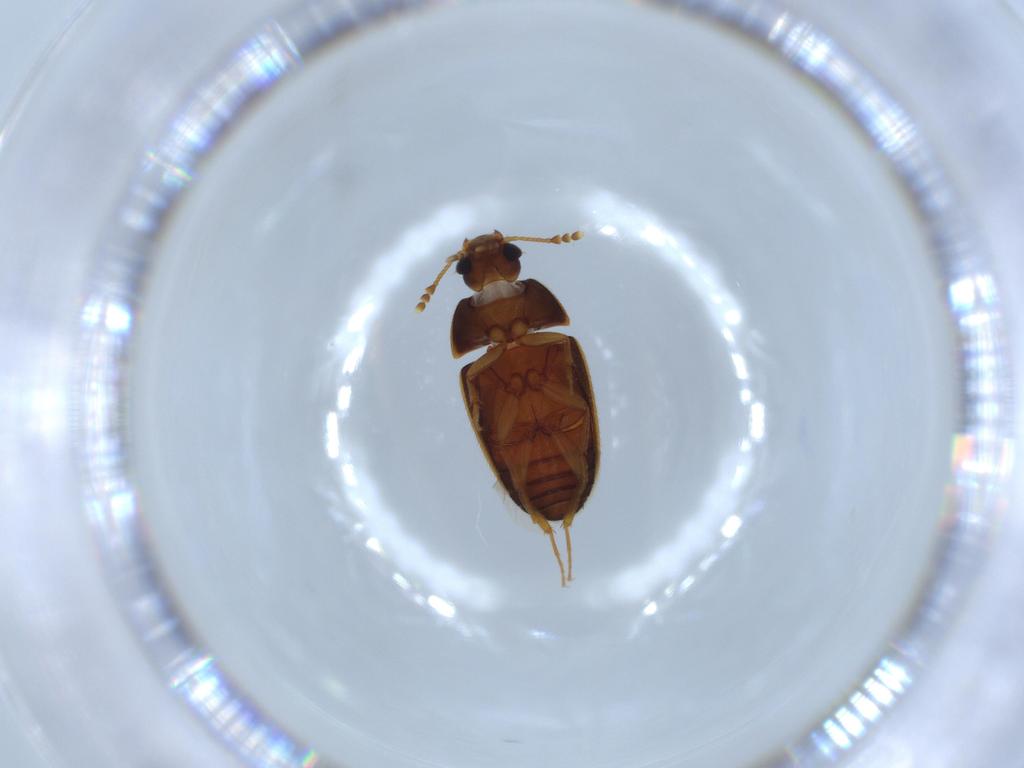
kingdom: Animalia
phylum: Arthropoda
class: Insecta
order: Coleoptera
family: Mycetophagidae
